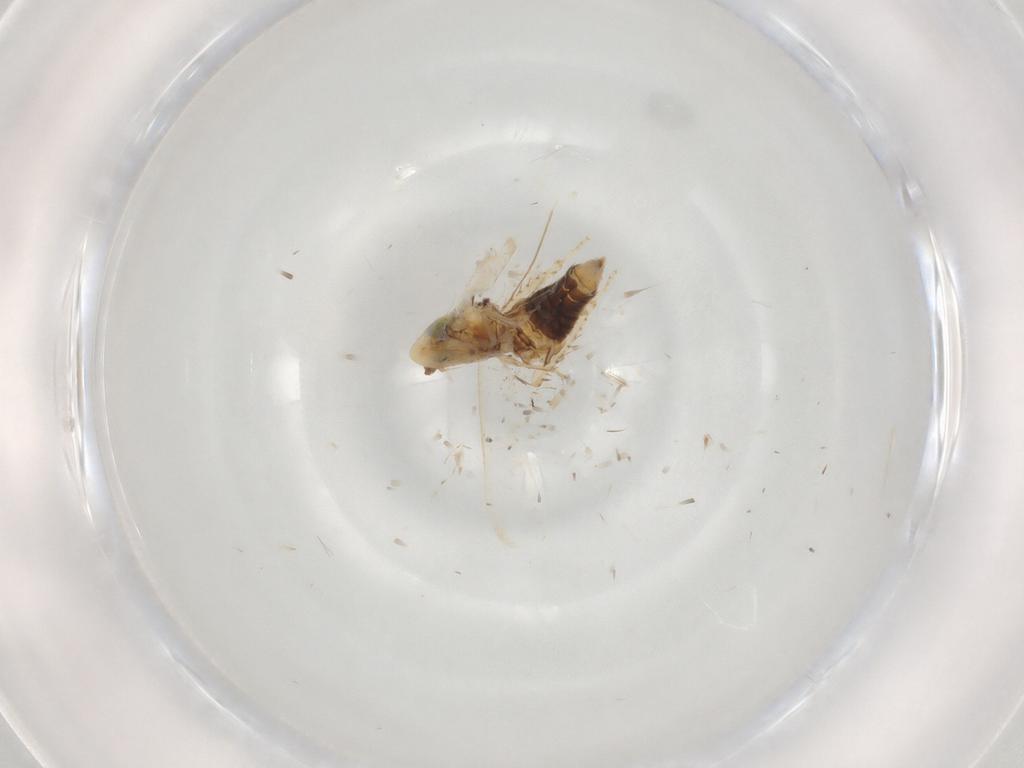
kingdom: Animalia
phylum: Arthropoda
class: Insecta
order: Hemiptera
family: Cicadellidae
